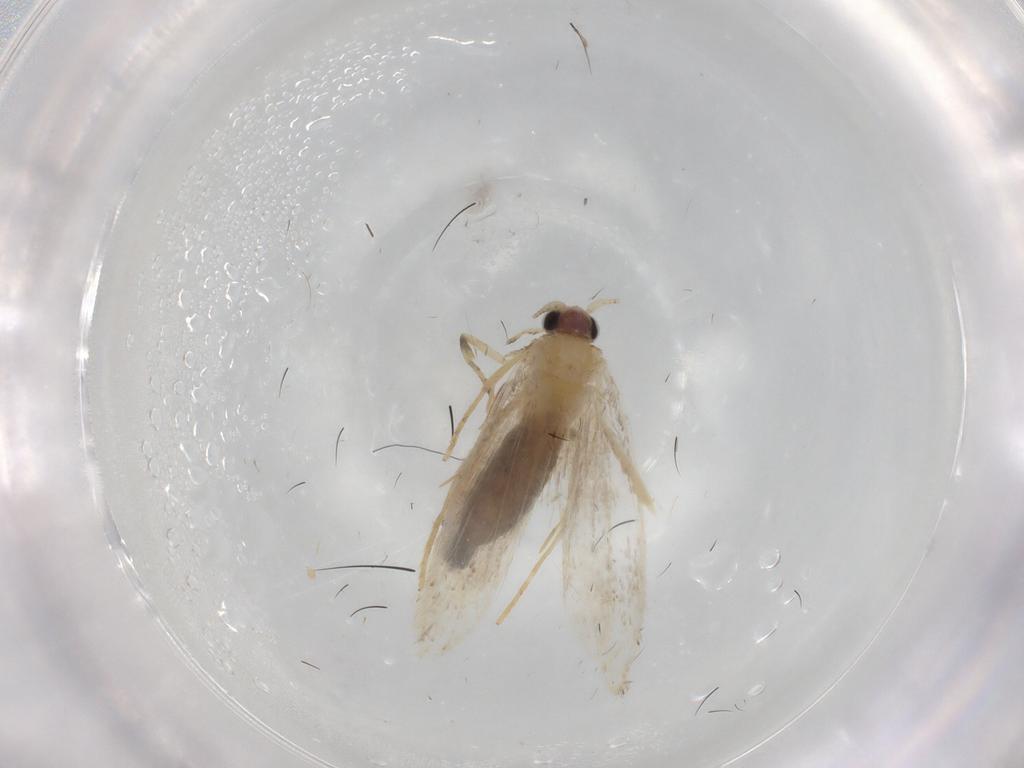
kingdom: Animalia
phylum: Arthropoda
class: Insecta
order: Lepidoptera
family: Nepticulidae
